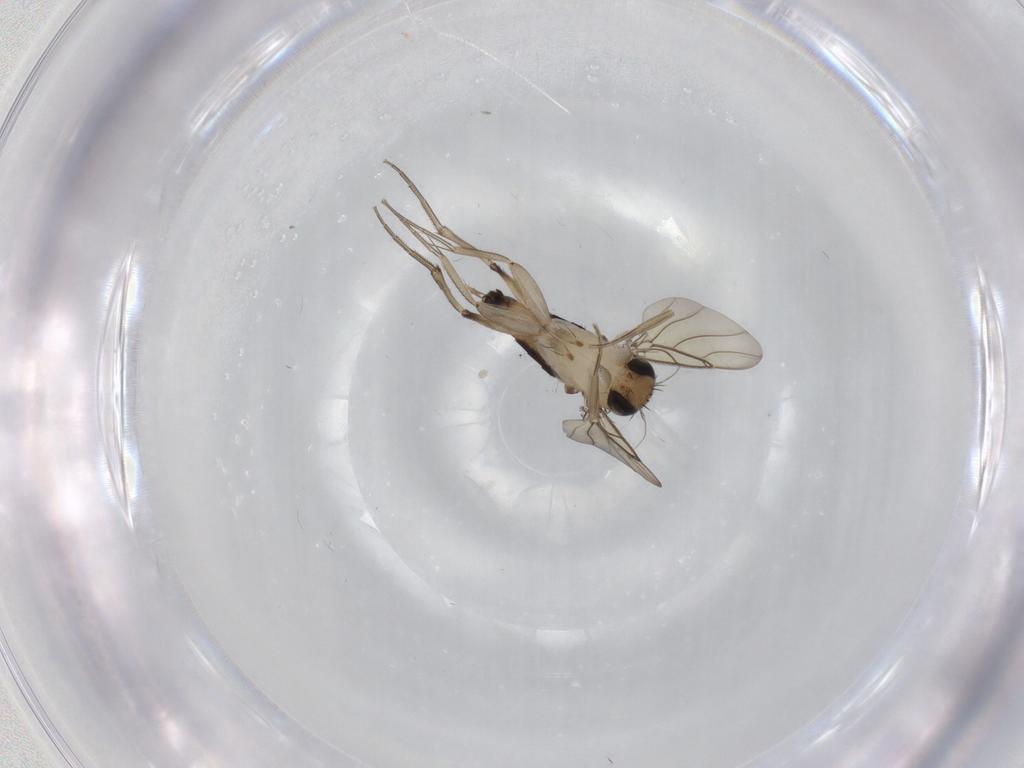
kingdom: Animalia
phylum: Arthropoda
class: Insecta
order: Diptera
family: Phoridae
